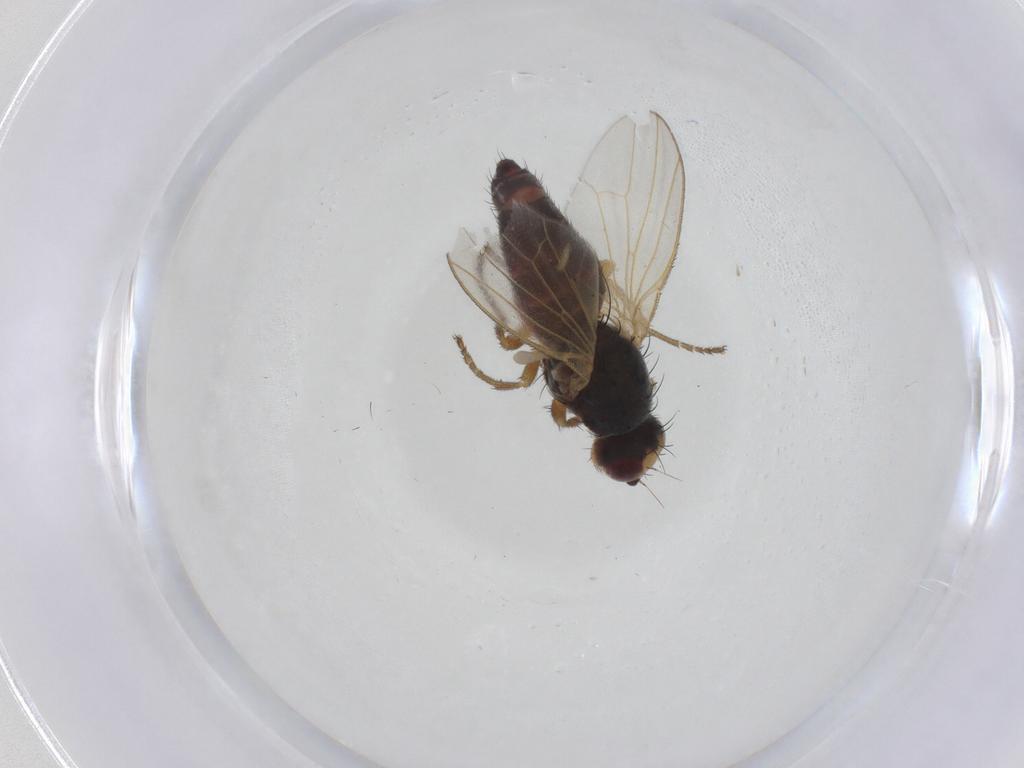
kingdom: Animalia
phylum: Arthropoda
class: Insecta
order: Diptera
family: Heleomyzidae
